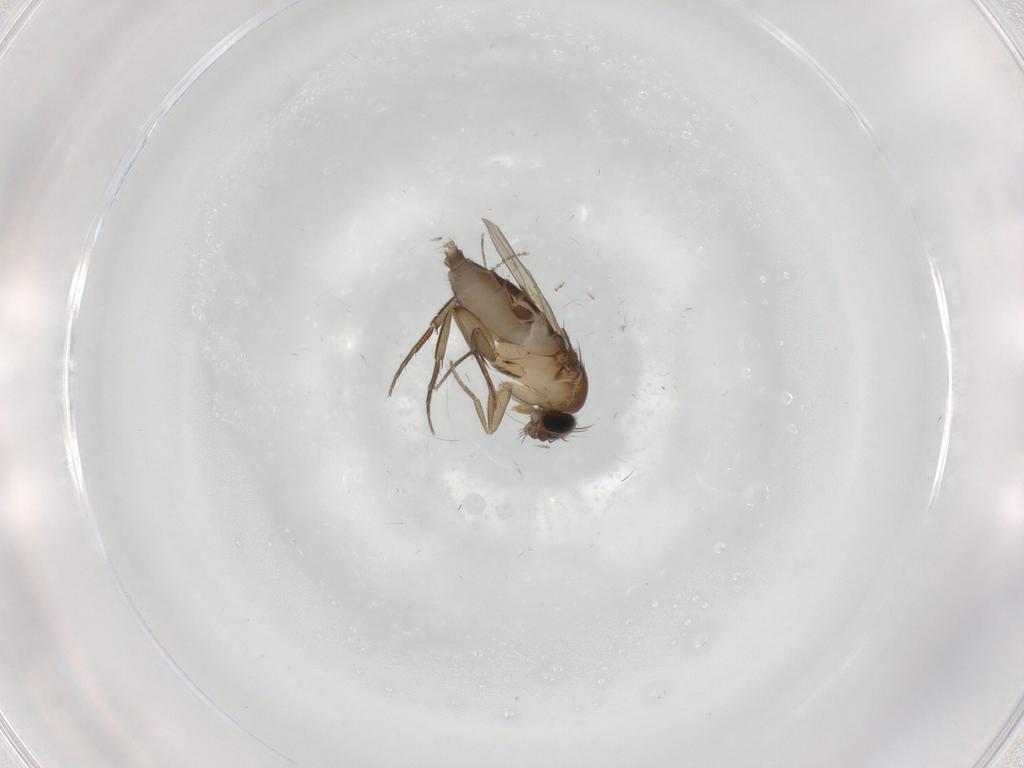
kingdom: Animalia
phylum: Arthropoda
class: Insecta
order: Diptera
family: Phoridae
